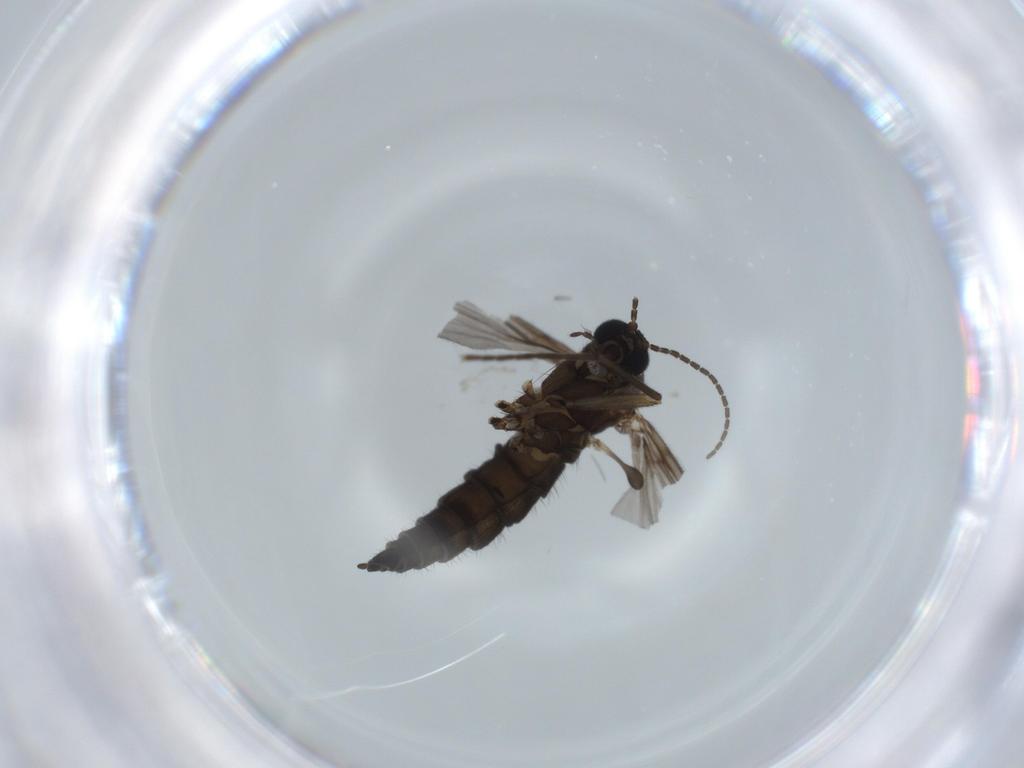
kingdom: Animalia
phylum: Arthropoda
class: Insecta
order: Diptera
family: Sciaridae
